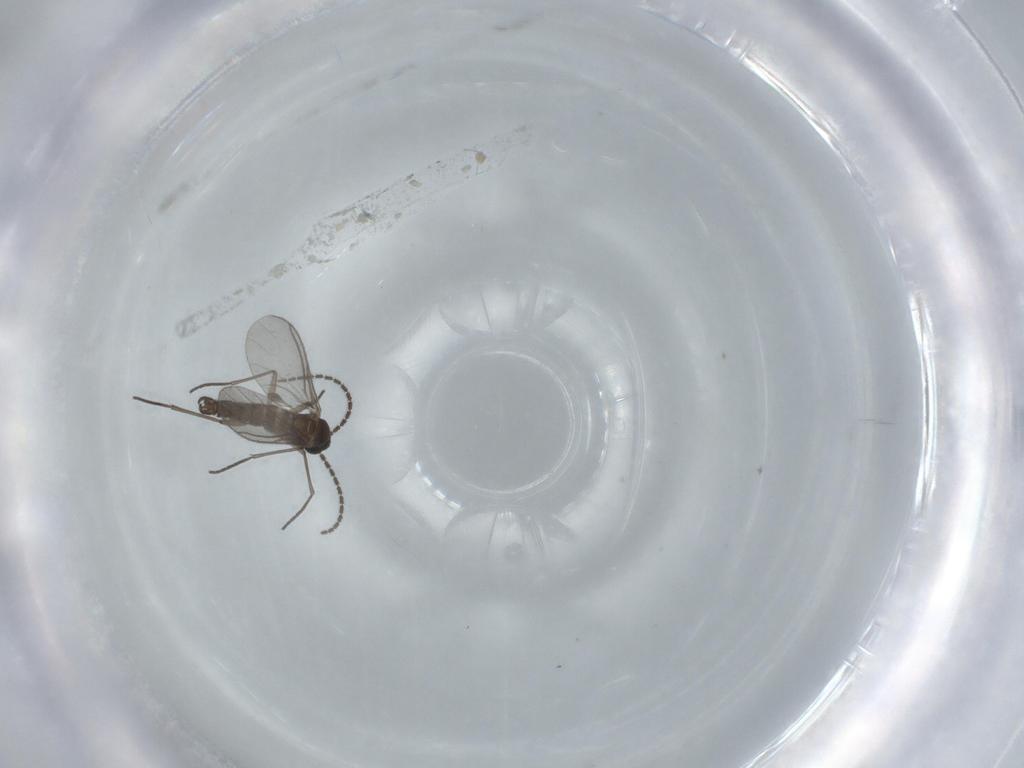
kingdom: Animalia
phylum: Arthropoda
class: Insecta
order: Diptera
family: Sciaridae
